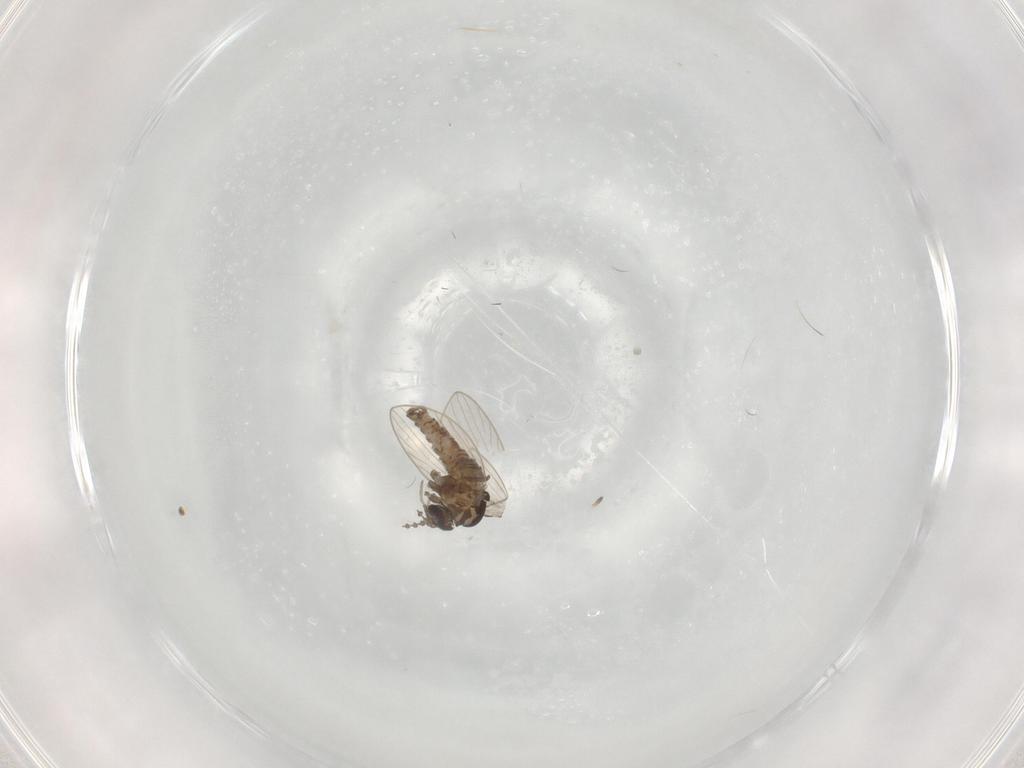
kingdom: Animalia
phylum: Arthropoda
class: Insecta
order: Diptera
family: Psychodidae
